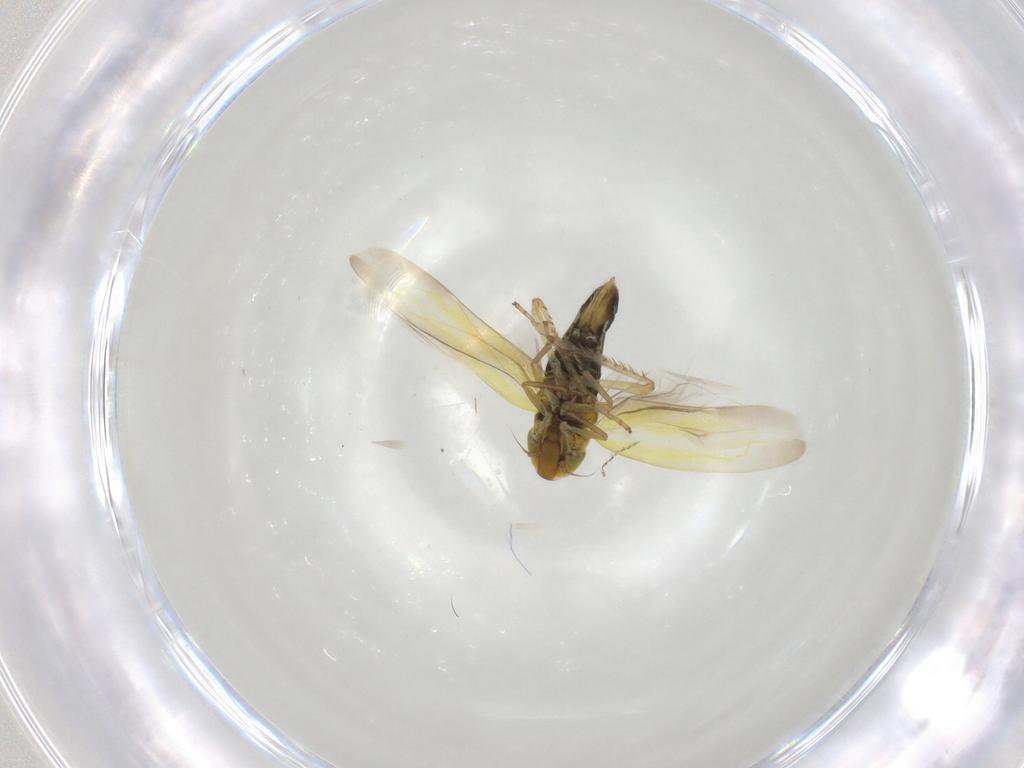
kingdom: Animalia
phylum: Arthropoda
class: Insecta
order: Hemiptera
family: Cicadellidae
